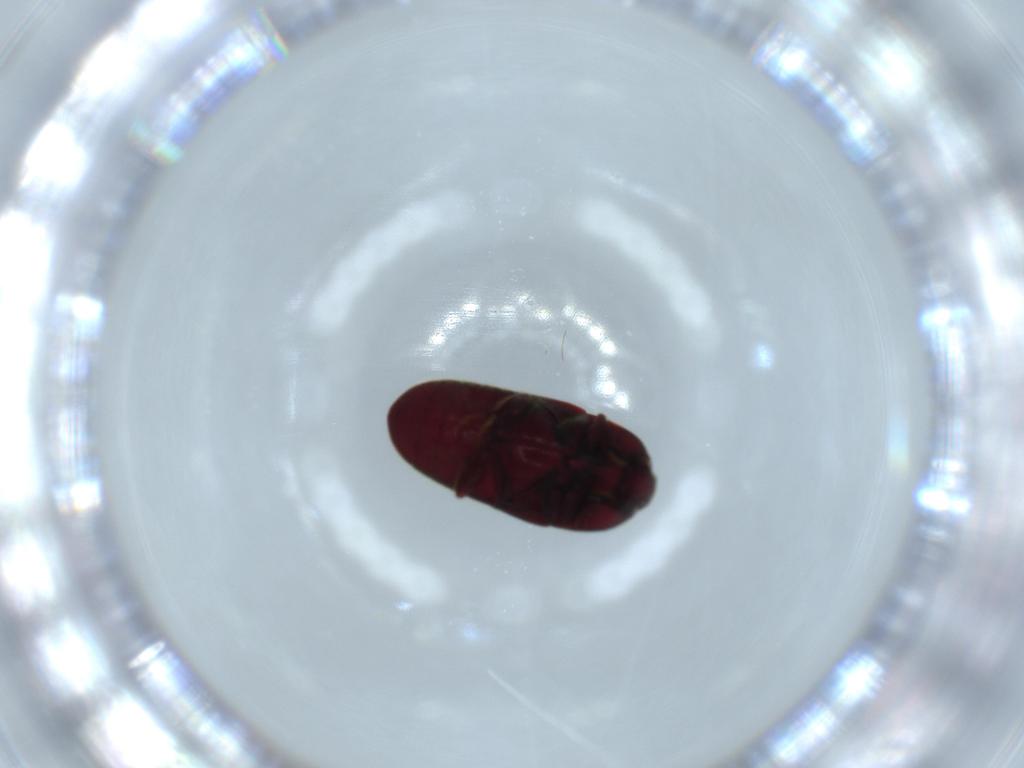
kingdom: Animalia
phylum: Arthropoda
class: Insecta
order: Coleoptera
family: Throscidae
